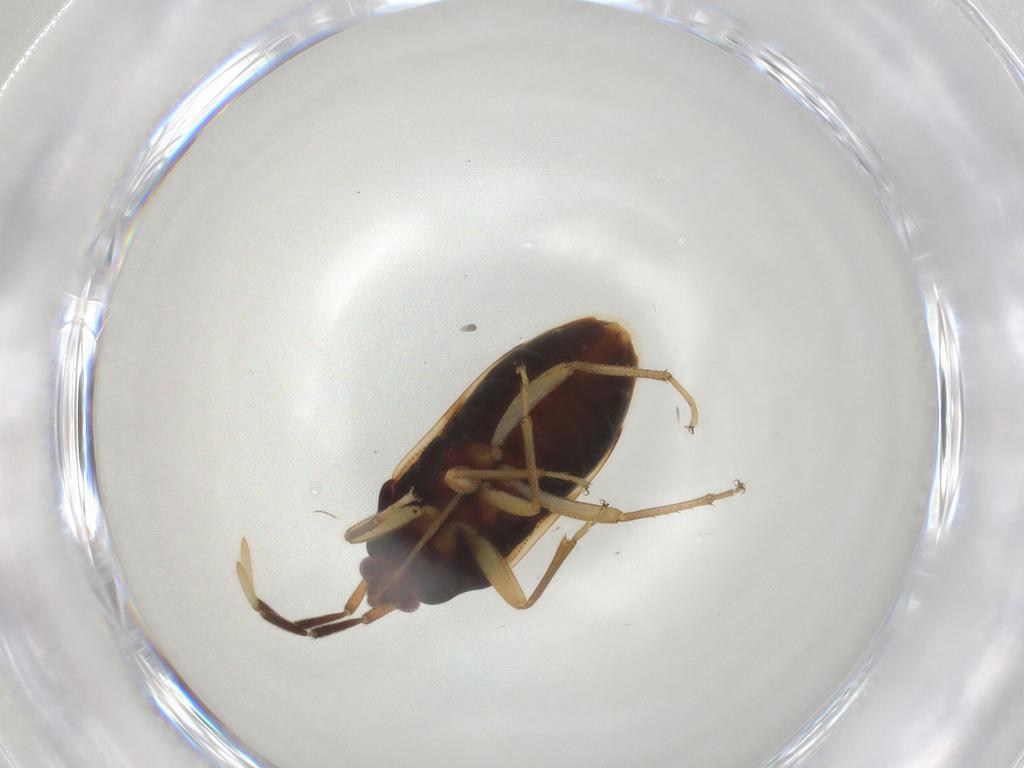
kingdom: Animalia
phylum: Arthropoda
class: Insecta
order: Hemiptera
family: Rhyparochromidae
